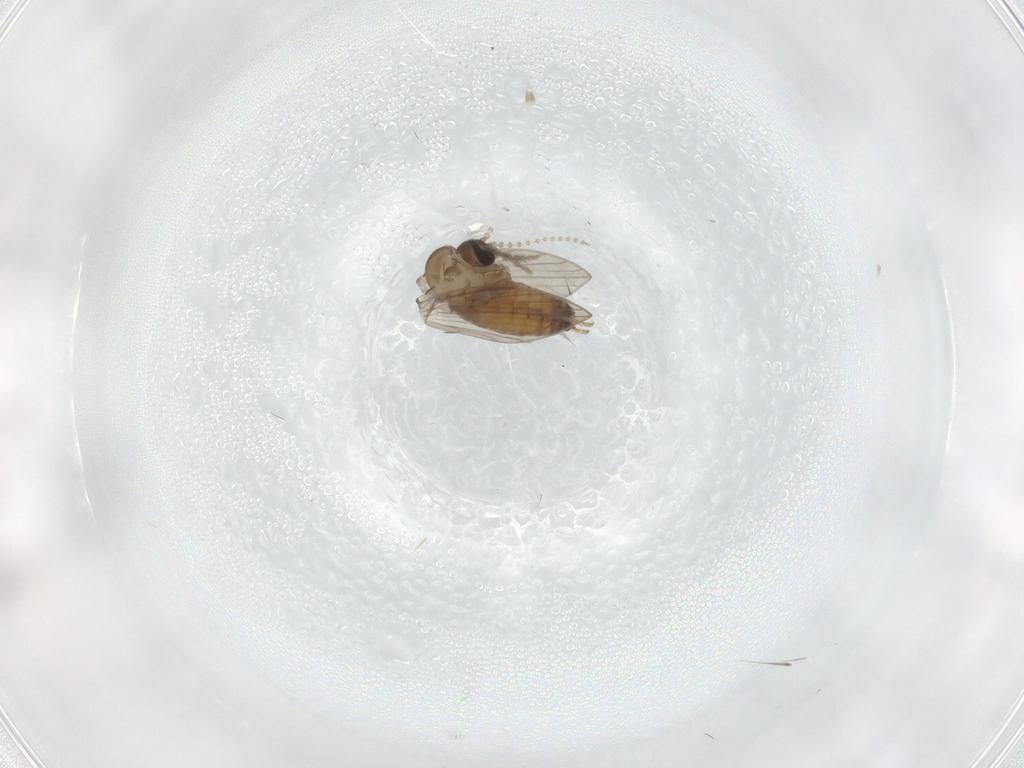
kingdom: Animalia
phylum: Arthropoda
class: Insecta
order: Diptera
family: Psychodidae
